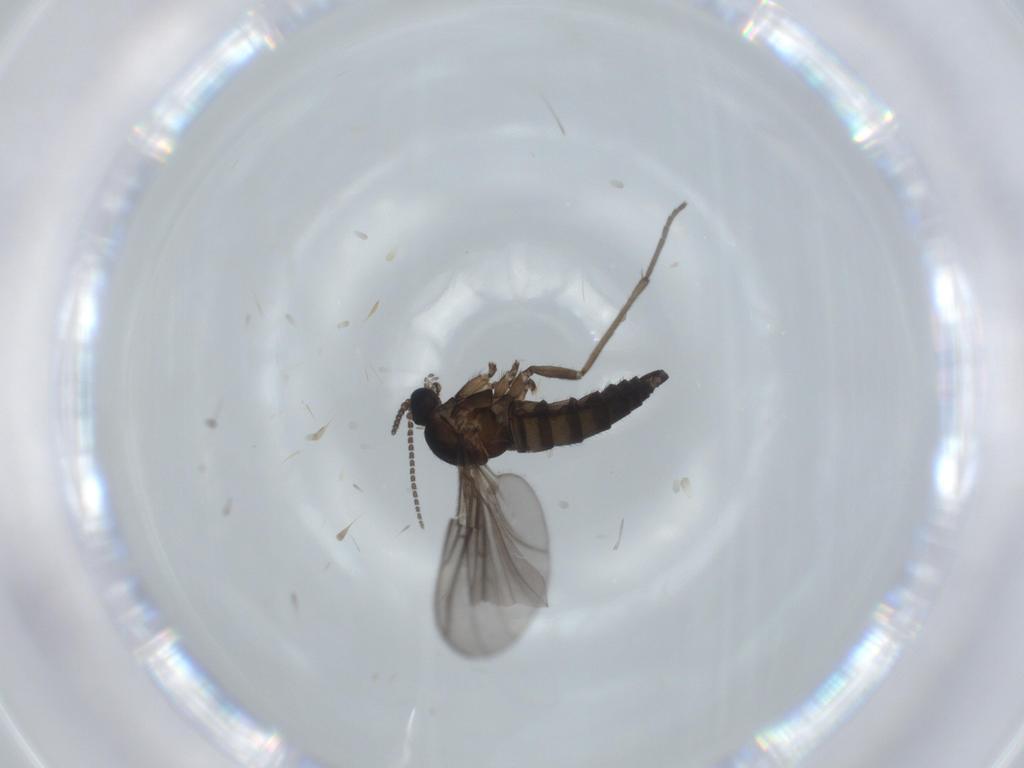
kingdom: Animalia
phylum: Arthropoda
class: Insecta
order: Diptera
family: Sciaridae
